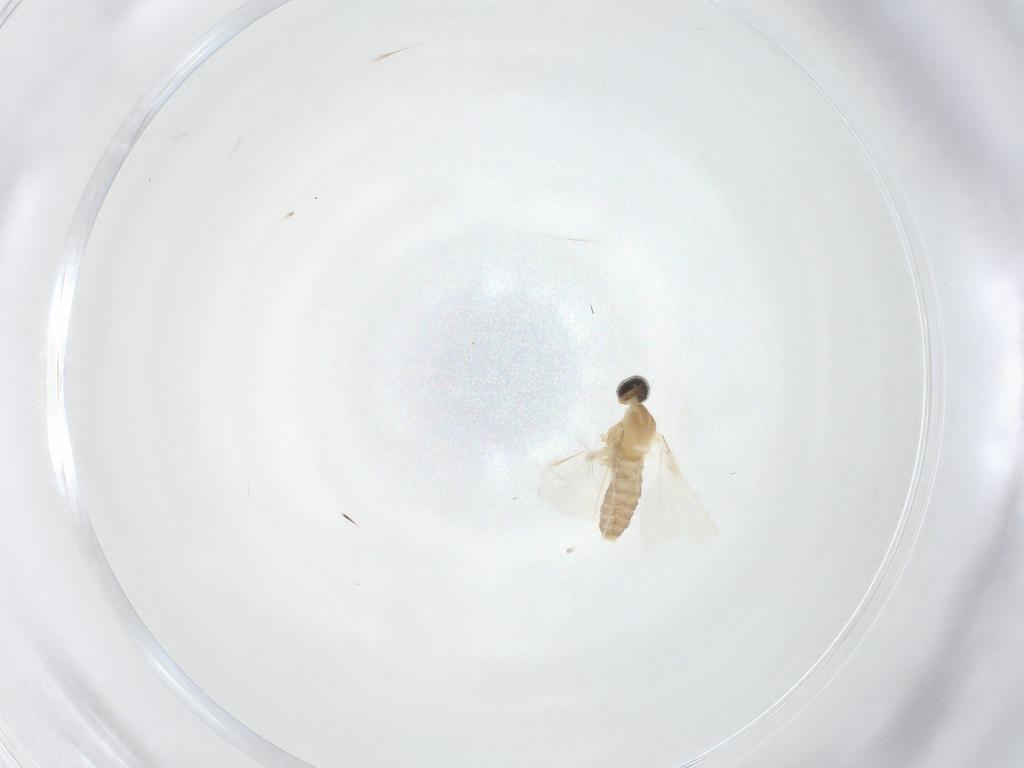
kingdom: Animalia
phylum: Arthropoda
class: Insecta
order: Diptera
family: Cecidomyiidae
